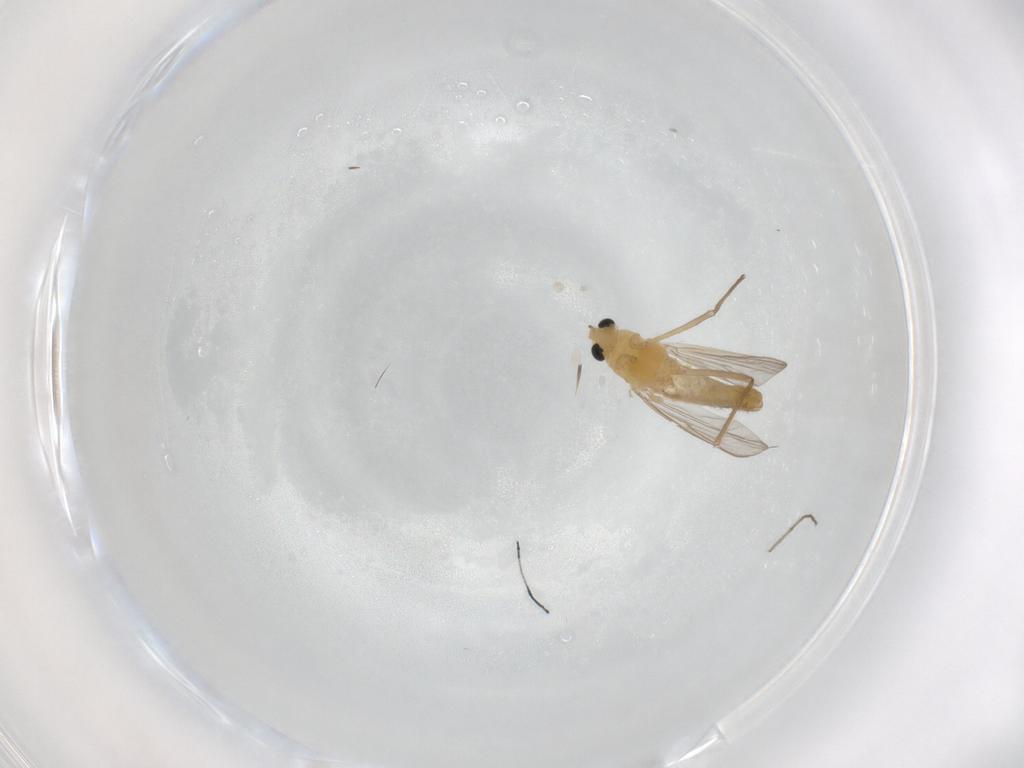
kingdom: Animalia
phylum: Arthropoda
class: Insecta
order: Diptera
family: Chironomidae
